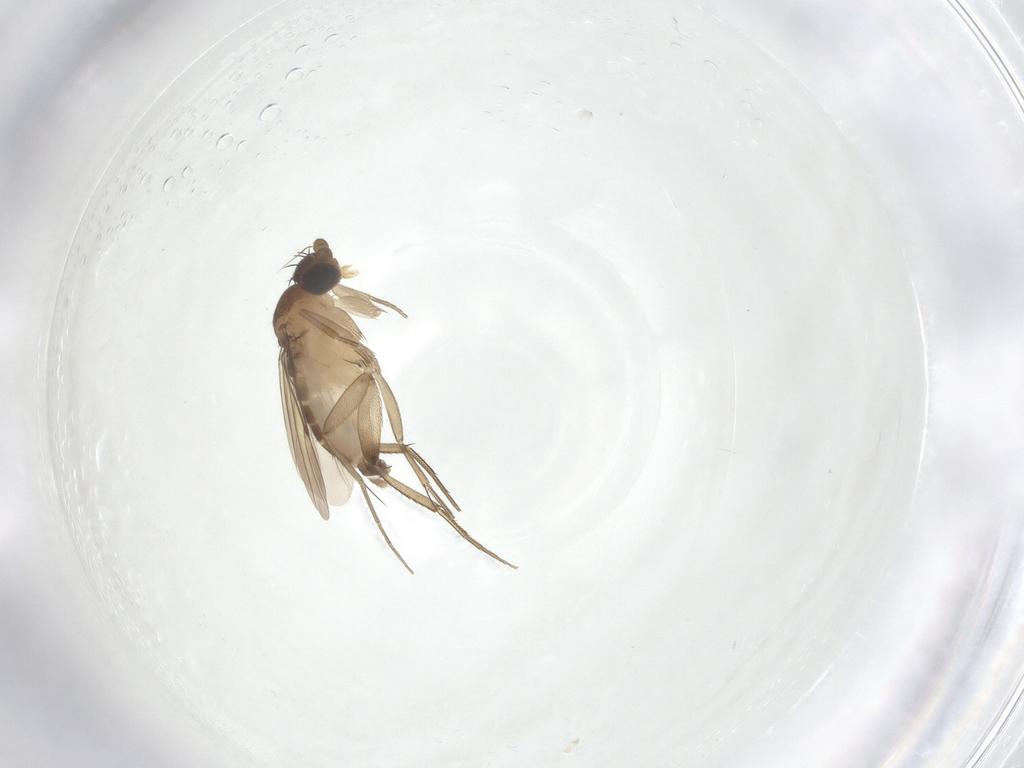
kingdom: Animalia
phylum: Arthropoda
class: Insecta
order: Diptera
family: Phoridae
